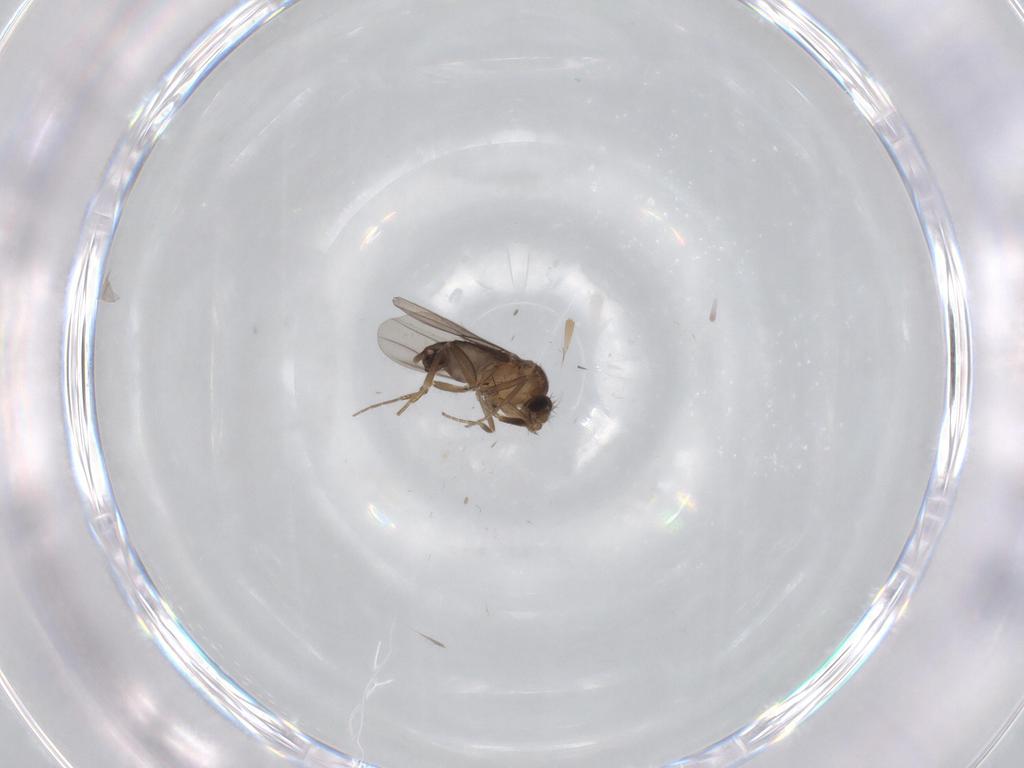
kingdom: Animalia
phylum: Arthropoda
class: Insecta
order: Diptera
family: Phoridae
